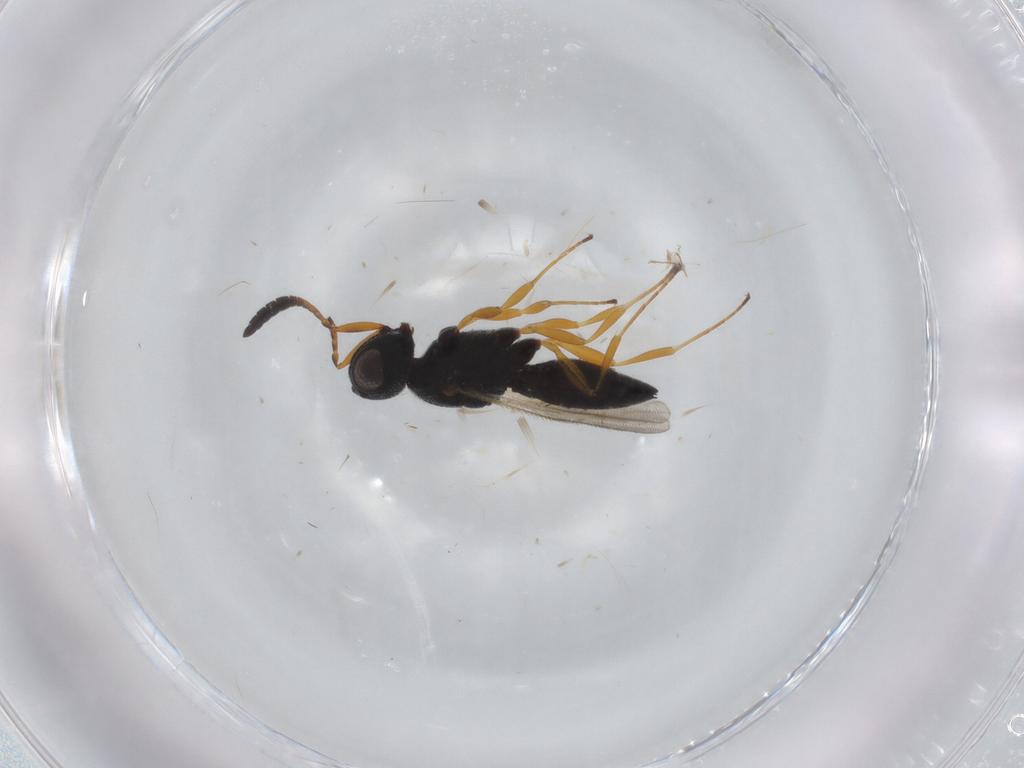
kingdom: Animalia
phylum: Arthropoda
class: Insecta
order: Hymenoptera
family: Scelionidae
